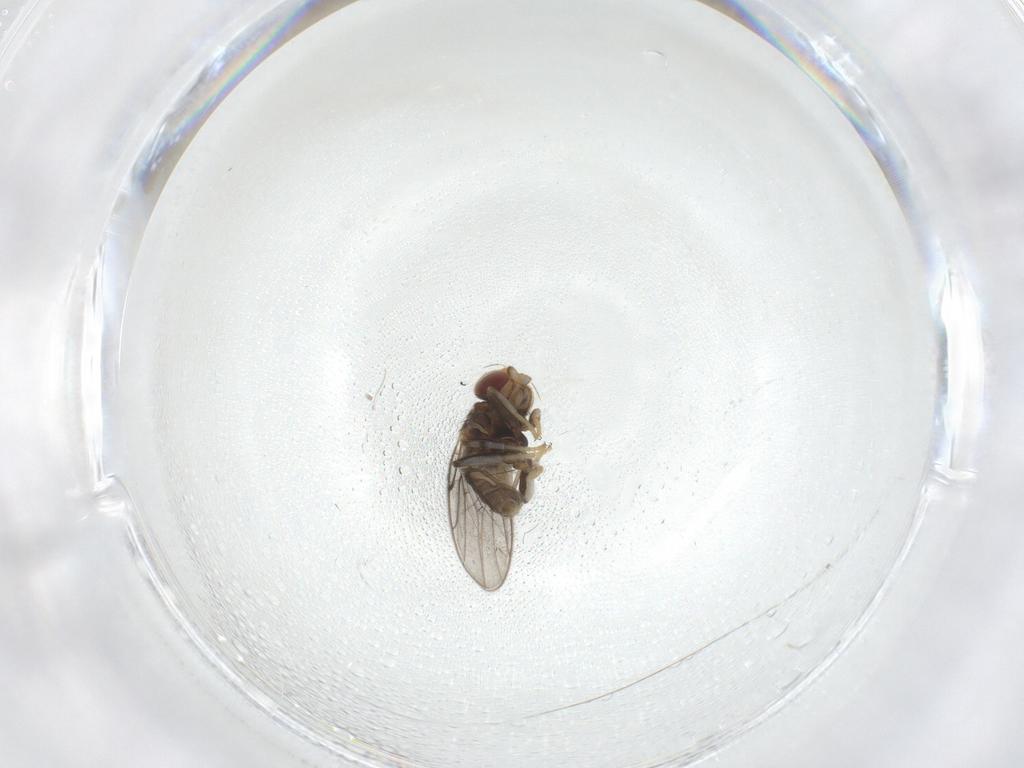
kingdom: Animalia
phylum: Arthropoda
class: Insecta
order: Diptera
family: Chloropidae
